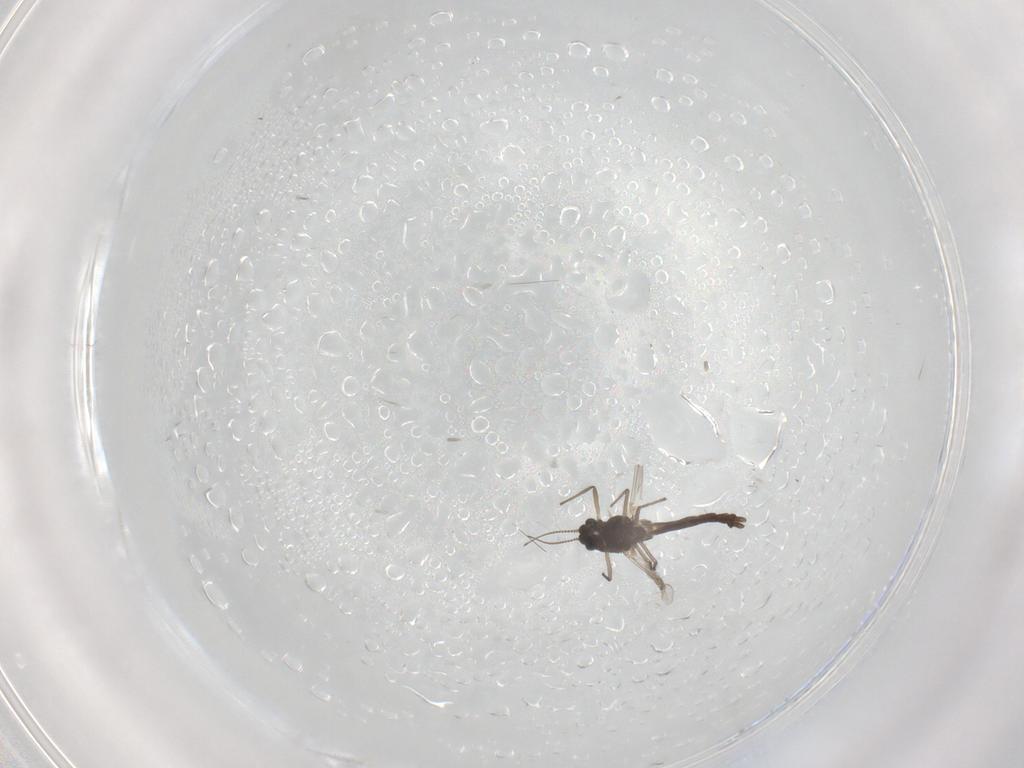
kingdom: Animalia
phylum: Arthropoda
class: Insecta
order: Diptera
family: Chironomidae
